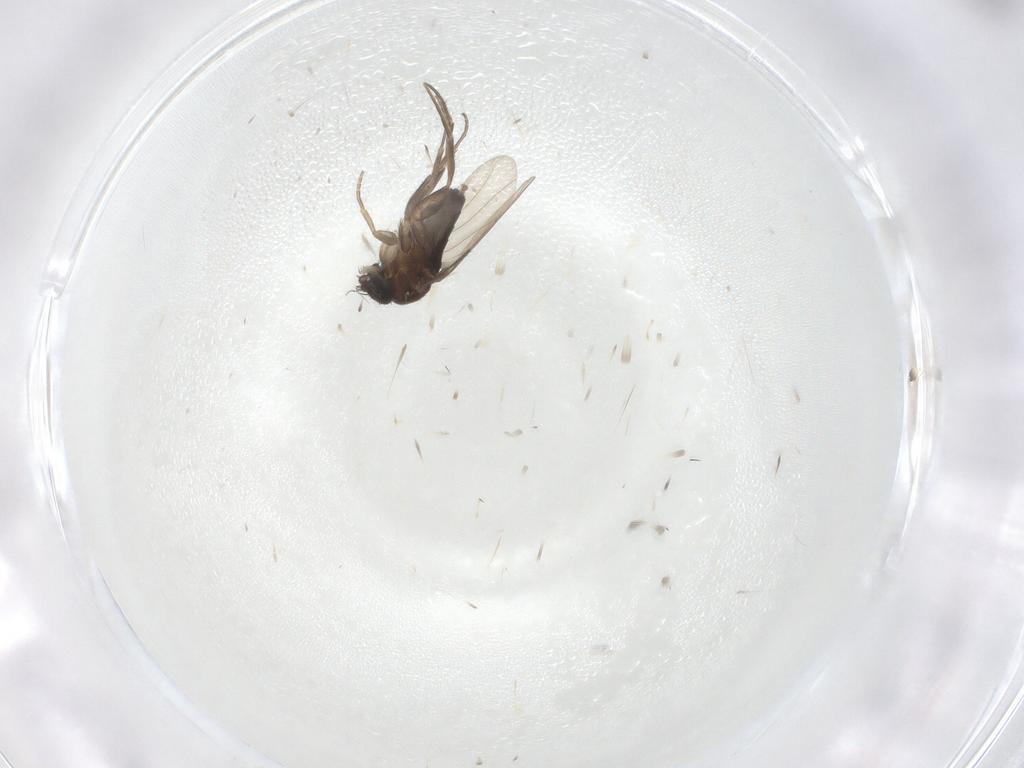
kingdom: Animalia
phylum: Arthropoda
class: Insecta
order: Diptera
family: Phoridae
